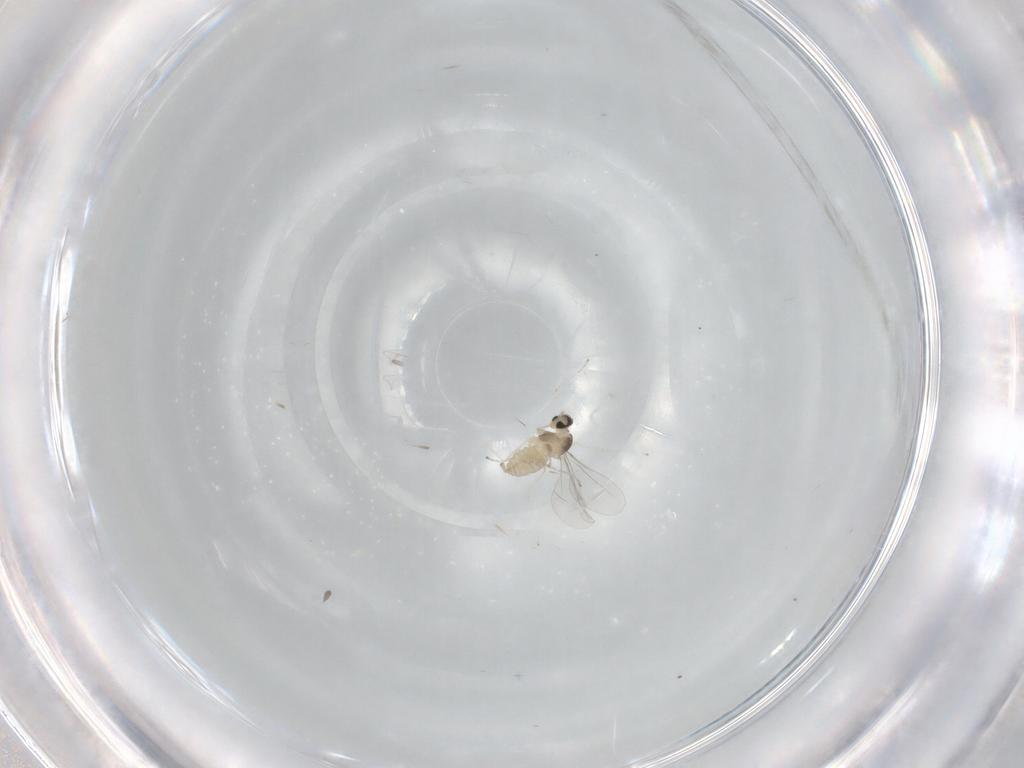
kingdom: Animalia
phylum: Arthropoda
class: Insecta
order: Diptera
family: Cecidomyiidae
